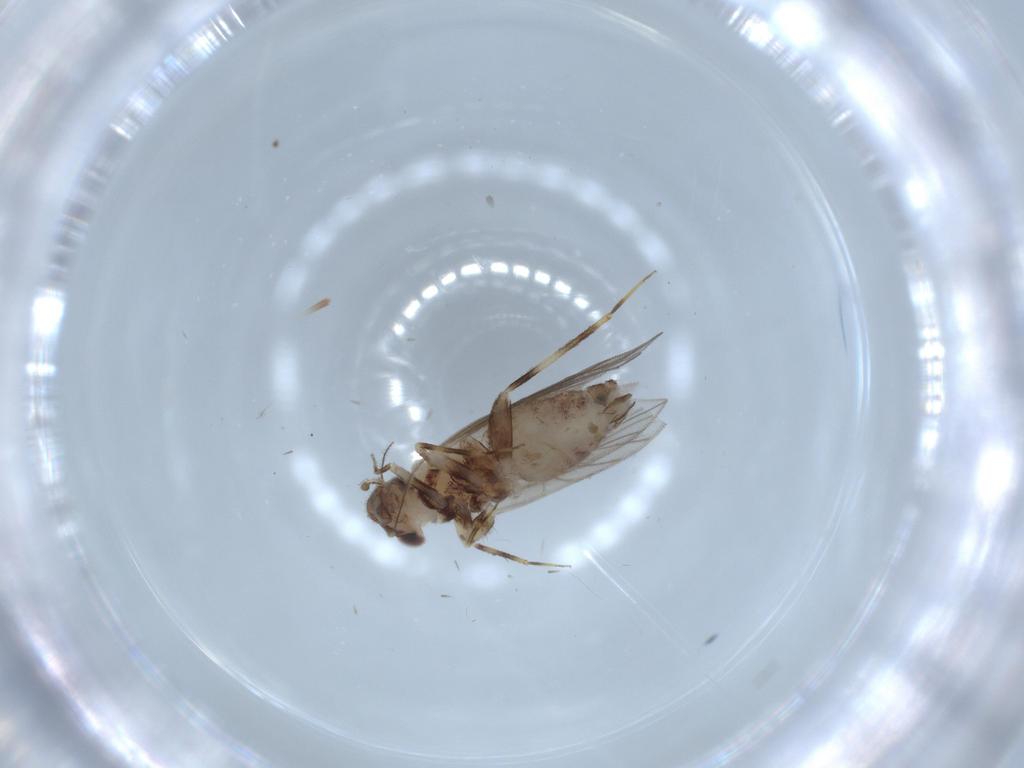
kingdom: Animalia
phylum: Arthropoda
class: Insecta
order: Psocodea
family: Lepidopsocidae
